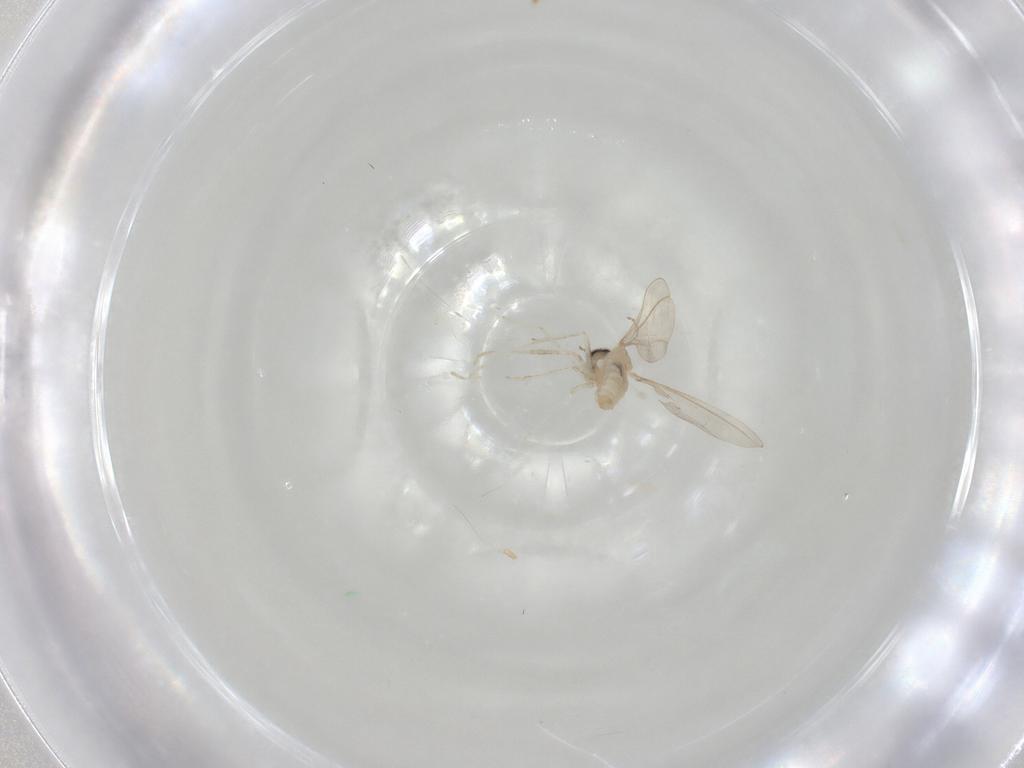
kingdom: Animalia
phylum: Arthropoda
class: Insecta
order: Diptera
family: Cecidomyiidae
